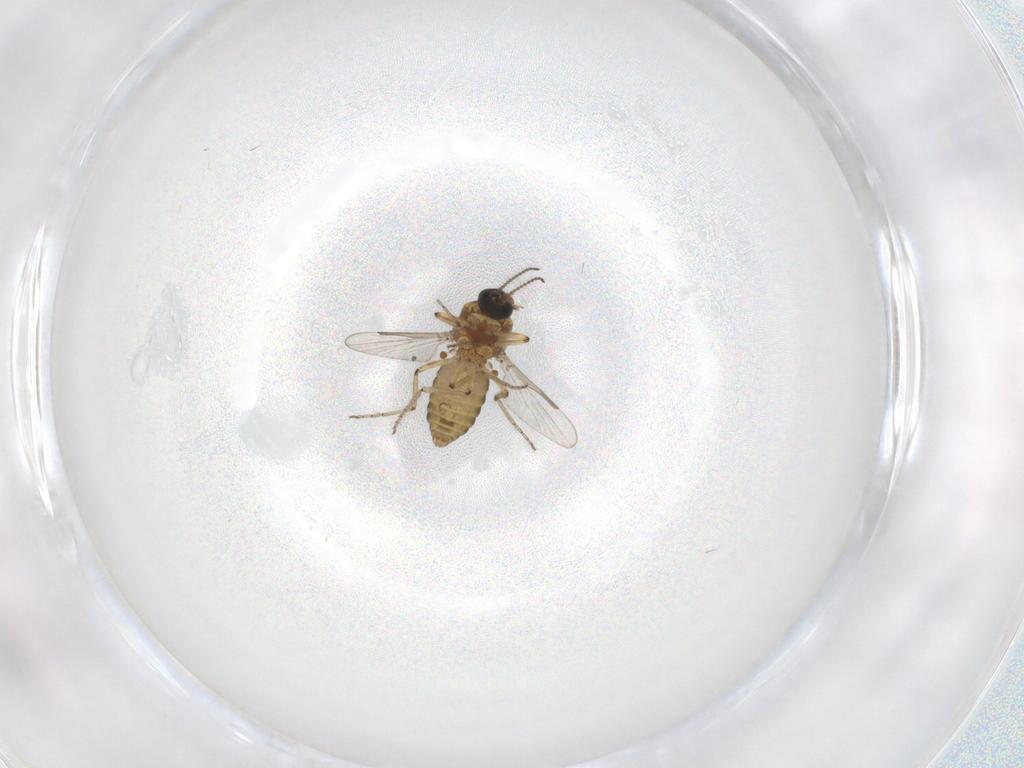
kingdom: Animalia
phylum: Arthropoda
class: Insecta
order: Diptera
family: Ceratopogonidae
